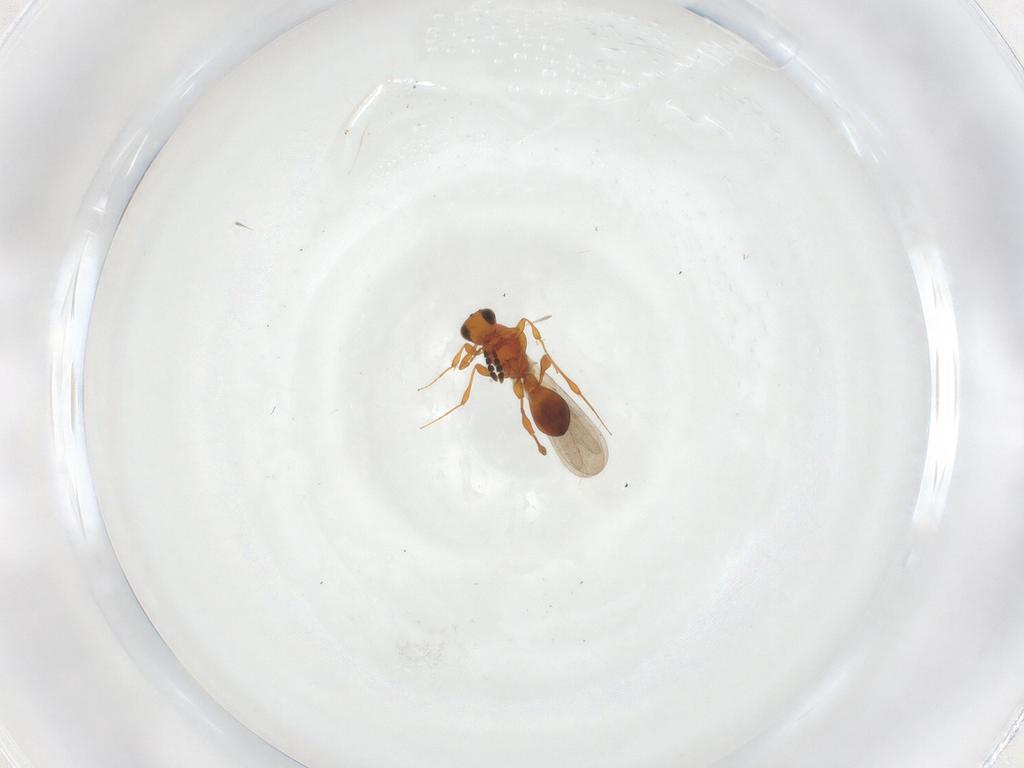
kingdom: Animalia
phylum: Arthropoda
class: Insecta
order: Hymenoptera
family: Platygastridae
